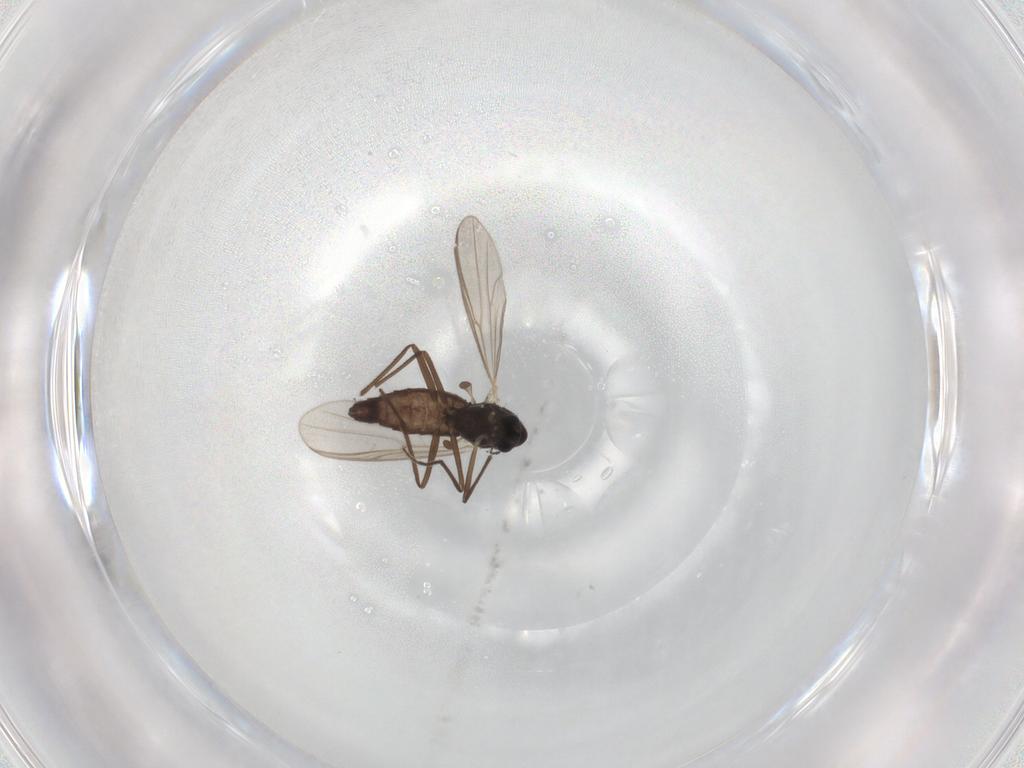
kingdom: Animalia
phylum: Arthropoda
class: Insecta
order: Diptera
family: Chironomidae
